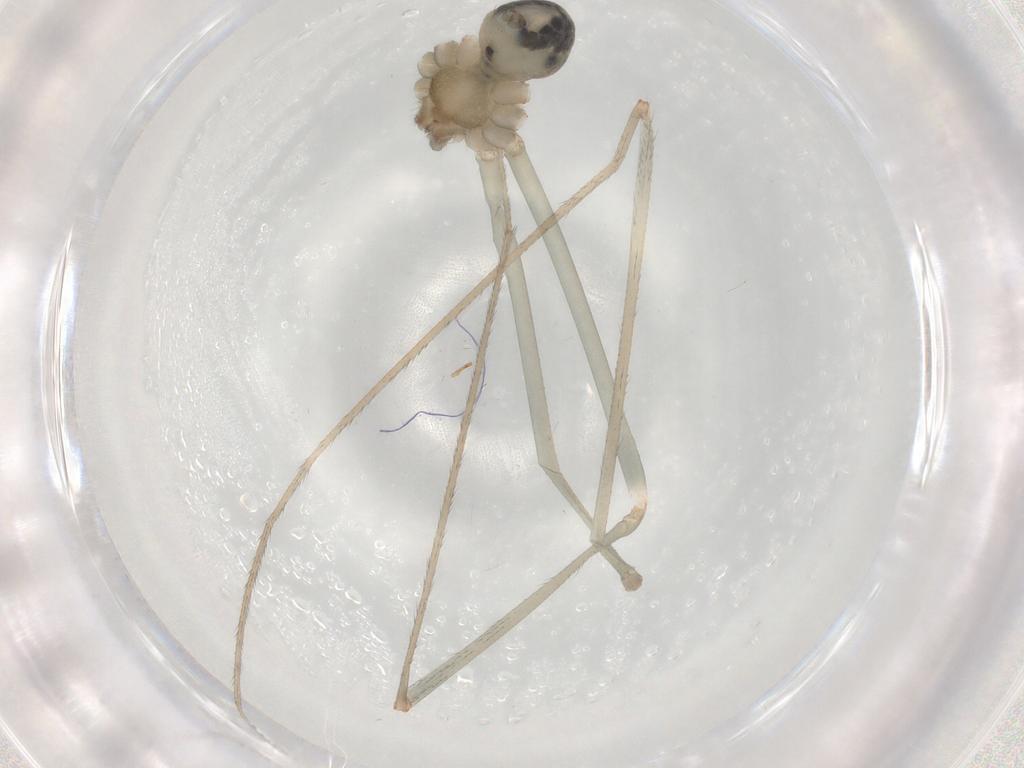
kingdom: Animalia
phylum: Arthropoda
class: Arachnida
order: Araneae
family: Pholcidae
